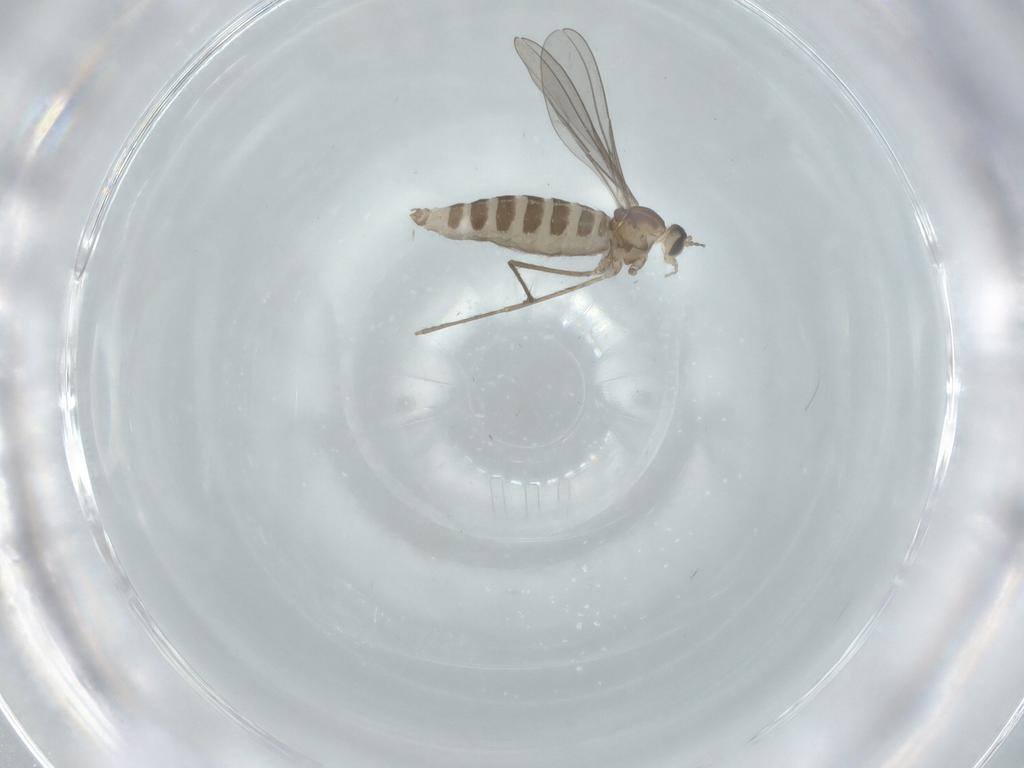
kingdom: Animalia
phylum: Arthropoda
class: Insecta
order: Diptera
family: Cecidomyiidae
